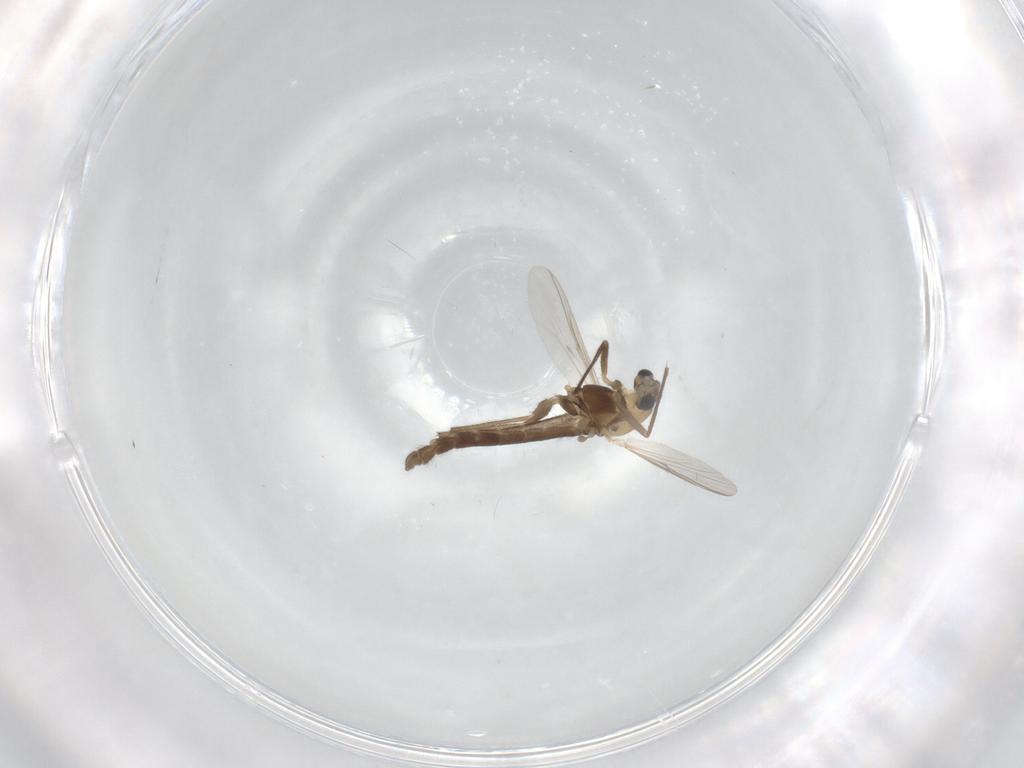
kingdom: Animalia
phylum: Arthropoda
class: Insecta
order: Diptera
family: Chironomidae
